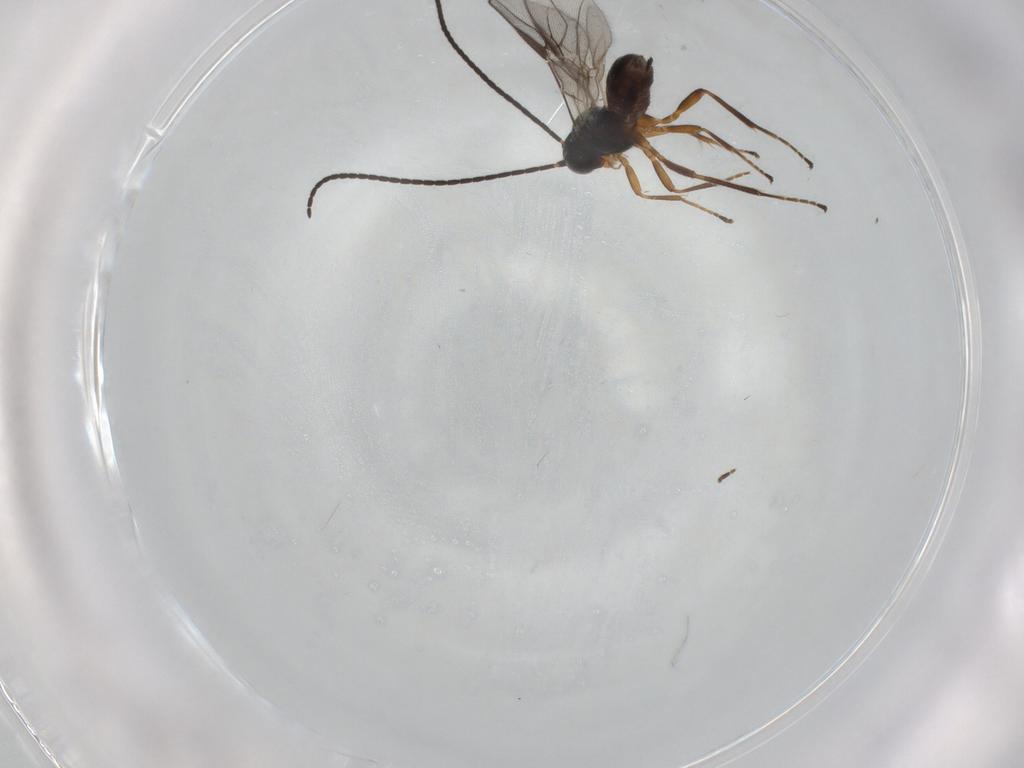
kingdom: Animalia
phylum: Arthropoda
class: Insecta
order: Hymenoptera
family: Braconidae
